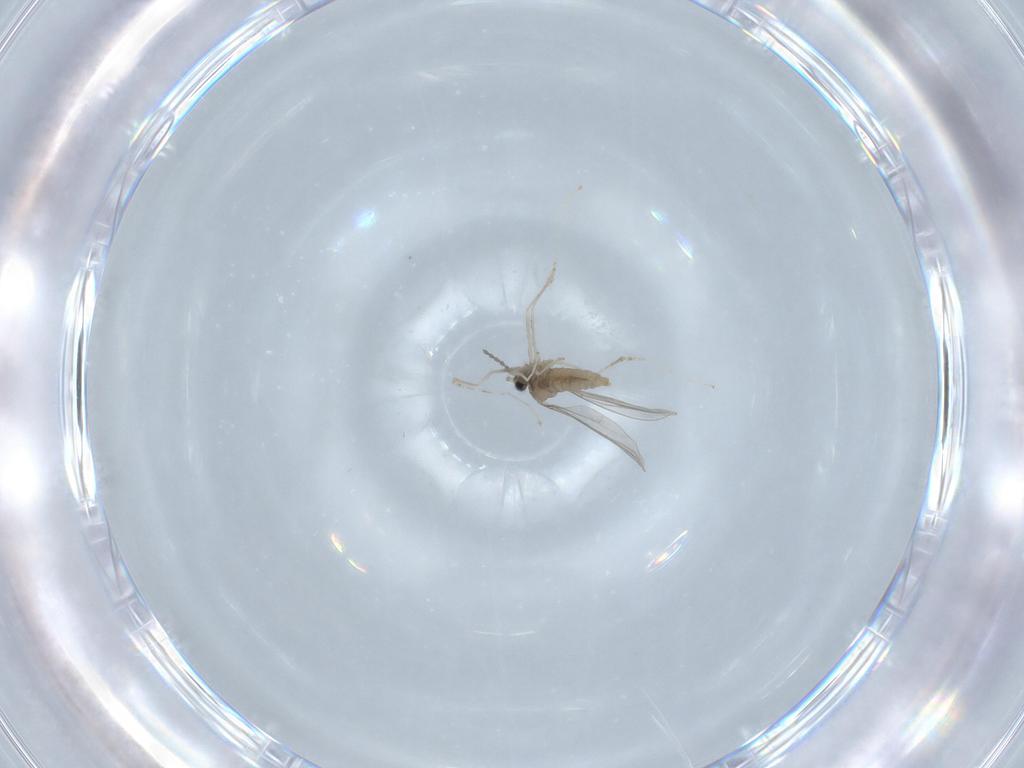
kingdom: Animalia
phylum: Arthropoda
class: Insecta
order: Diptera
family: Cecidomyiidae
